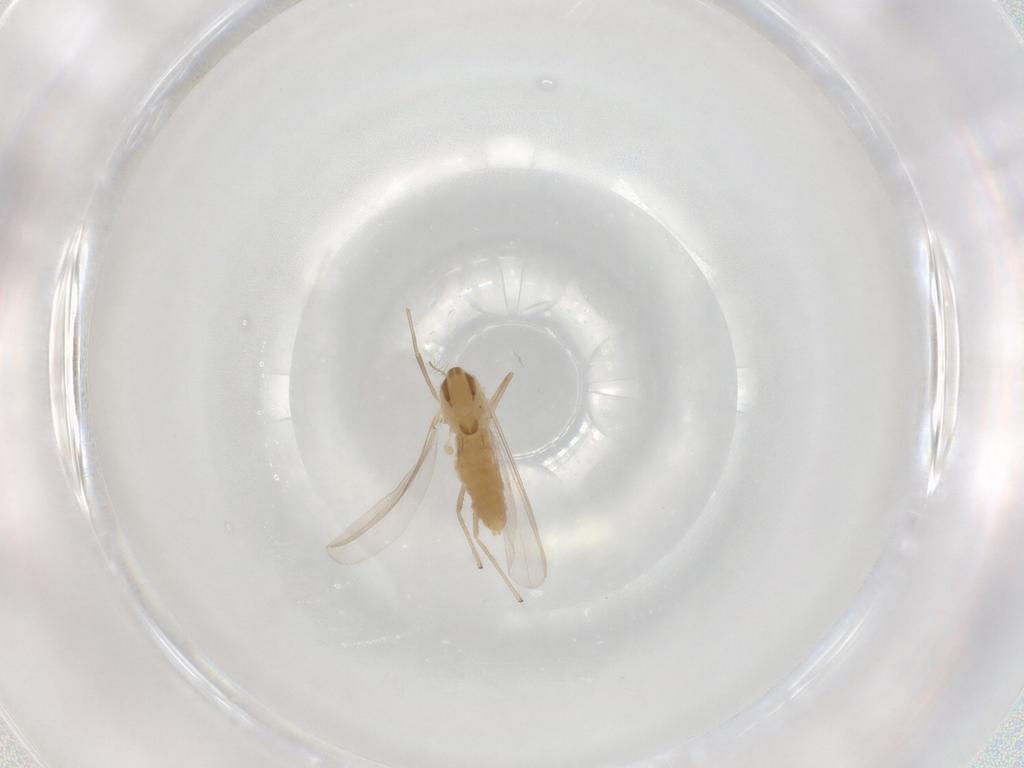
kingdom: Animalia
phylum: Arthropoda
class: Insecta
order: Diptera
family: Chironomidae
